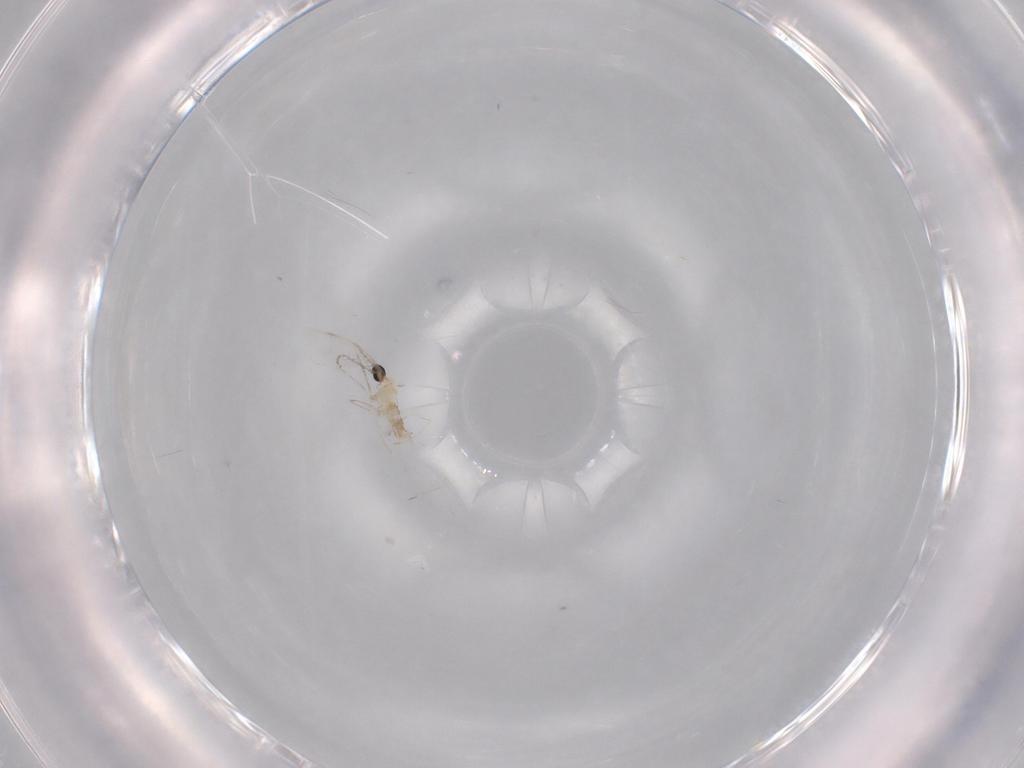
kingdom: Animalia
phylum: Arthropoda
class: Insecta
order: Diptera
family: Cecidomyiidae
